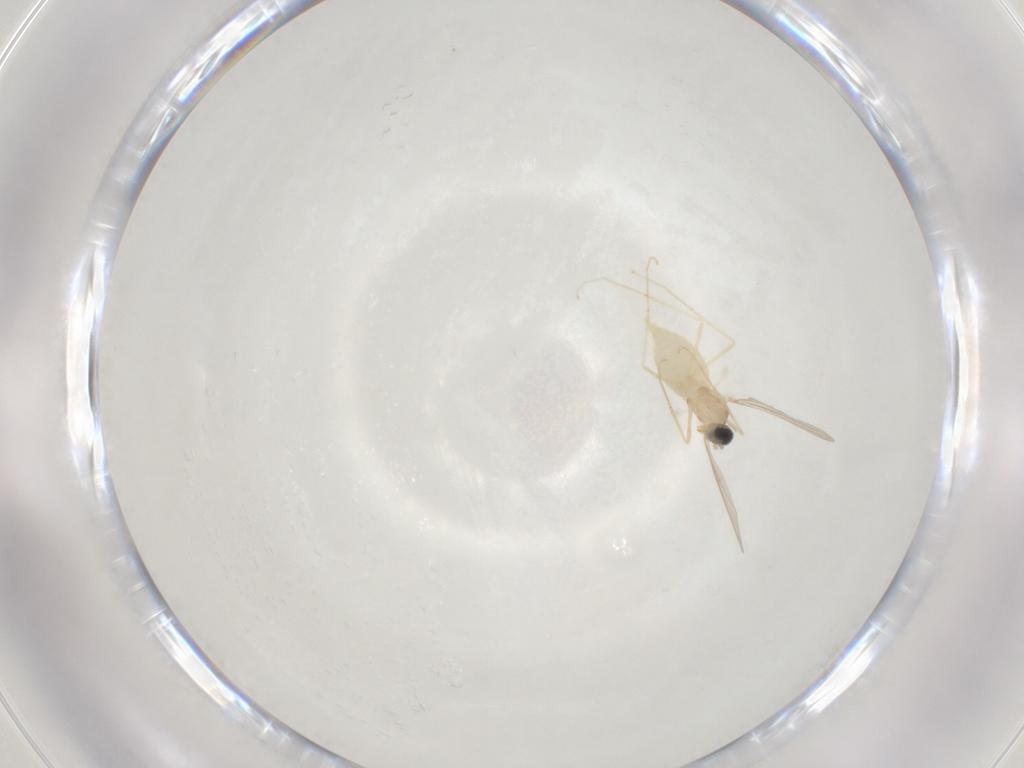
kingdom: Animalia
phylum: Arthropoda
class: Insecta
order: Diptera
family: Cecidomyiidae
